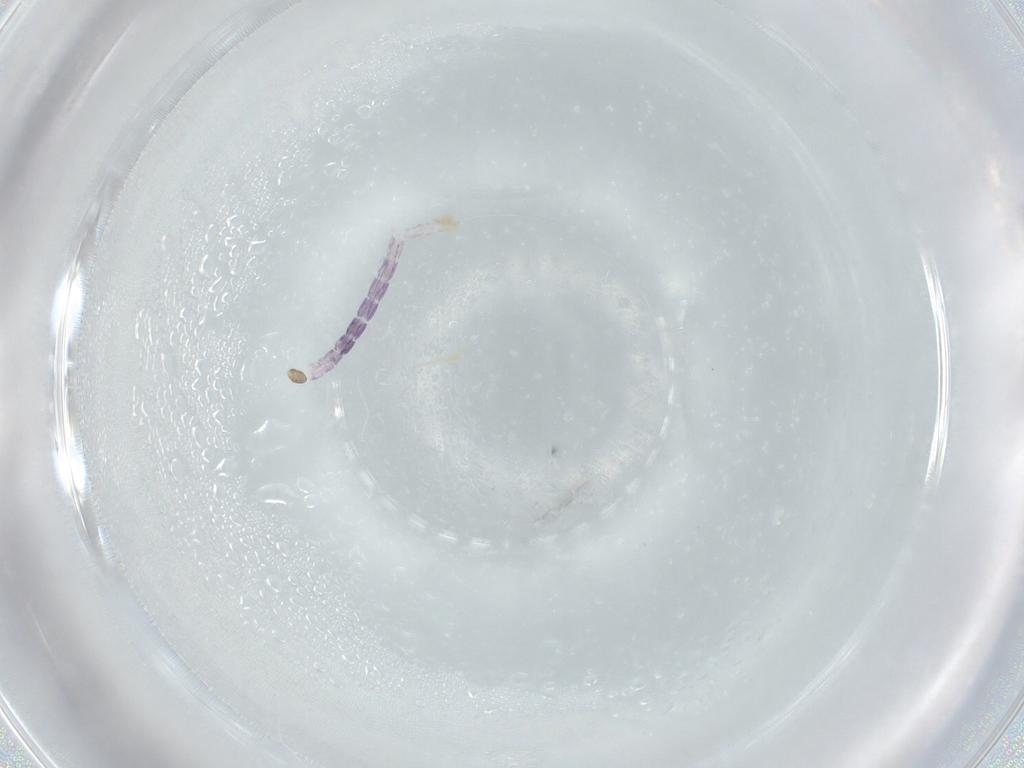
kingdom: Animalia
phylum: Arthropoda
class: Insecta
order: Diptera
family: Chironomidae
